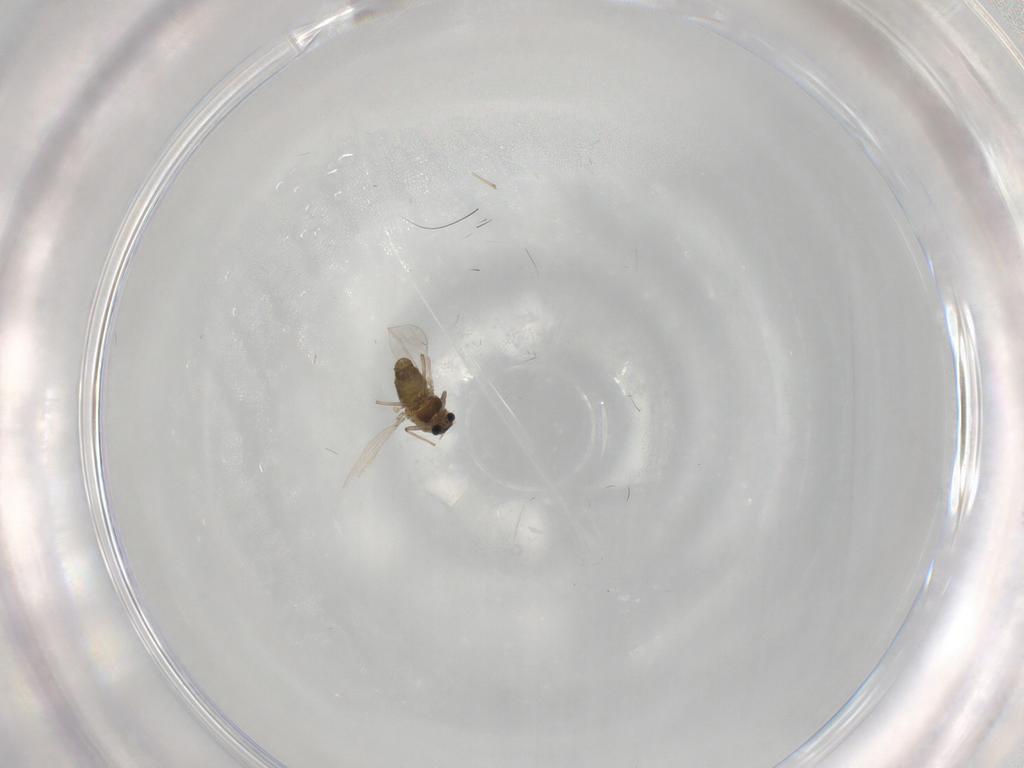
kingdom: Animalia
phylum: Arthropoda
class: Insecta
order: Diptera
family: Chironomidae
